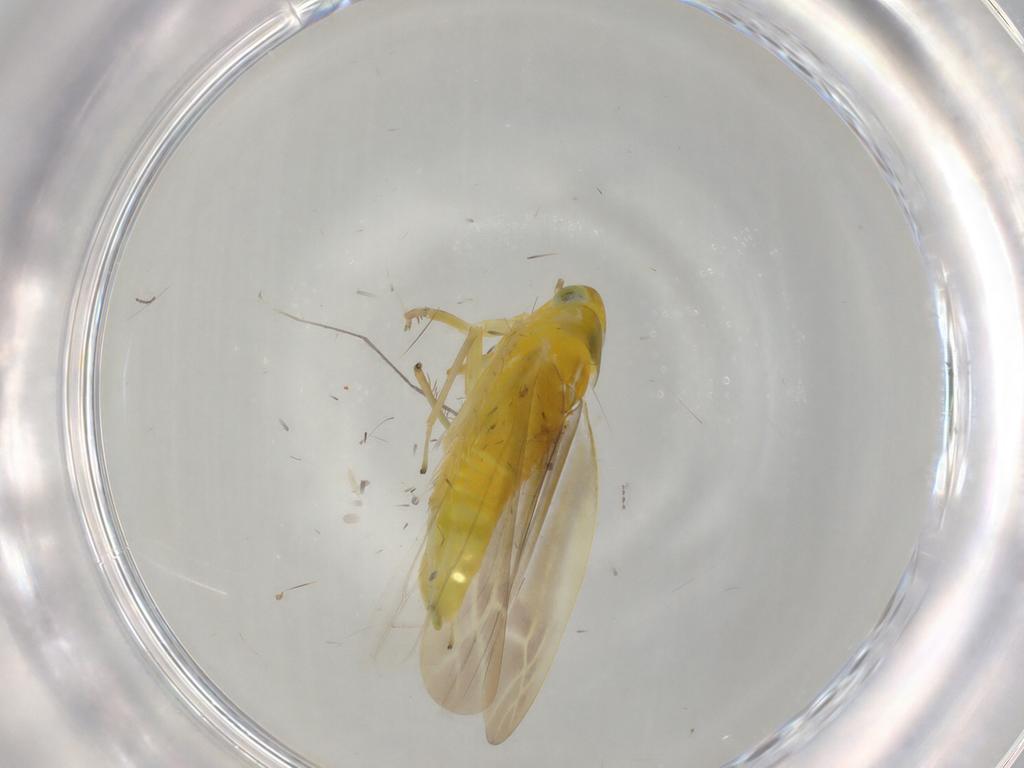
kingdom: Animalia
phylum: Arthropoda
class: Insecta
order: Hemiptera
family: Cicadellidae
